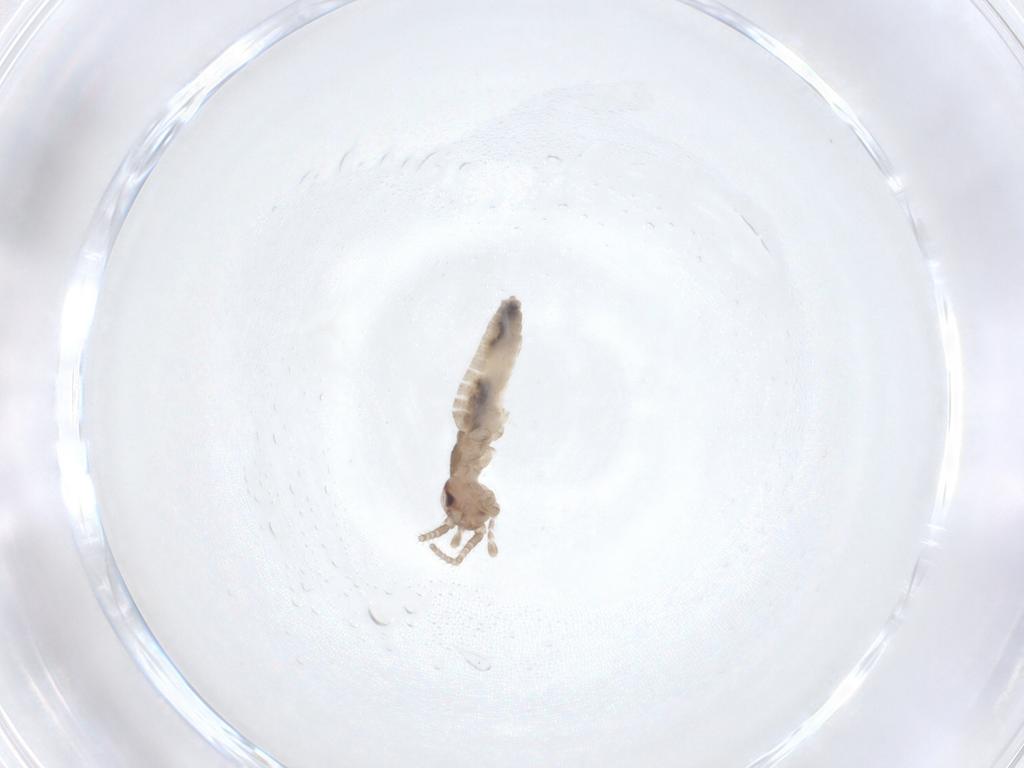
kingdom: Animalia
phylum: Arthropoda
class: Insecta
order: Orthoptera
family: Mogoplistidae
